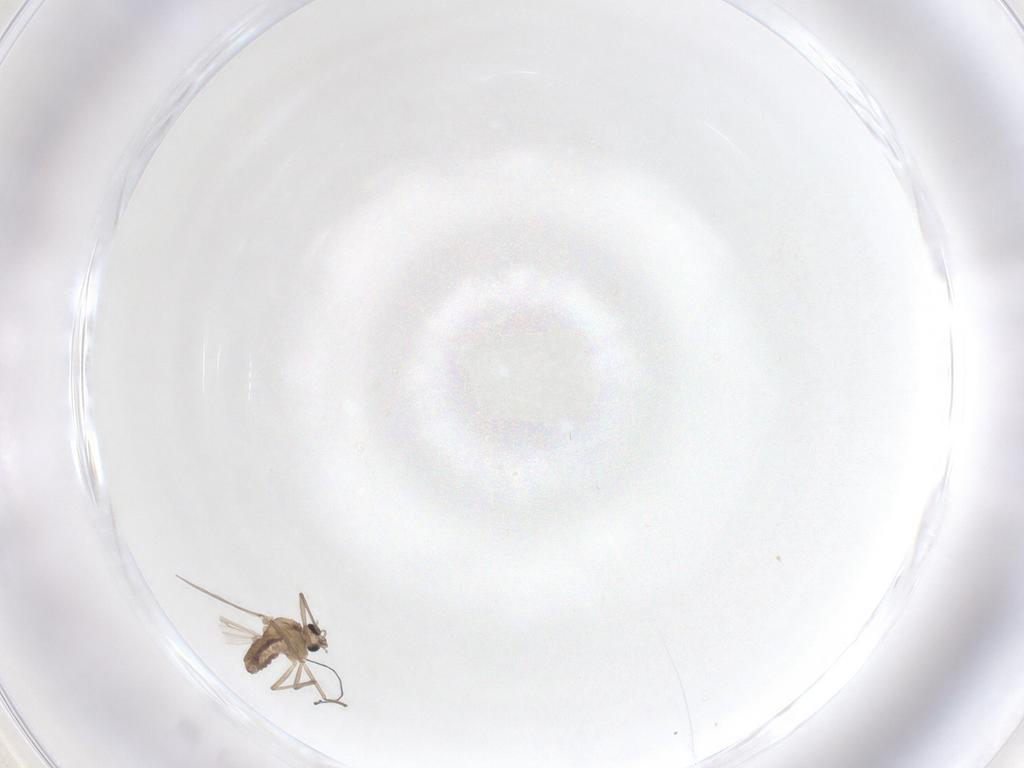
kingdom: Animalia
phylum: Arthropoda
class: Insecta
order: Diptera
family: Chironomidae
